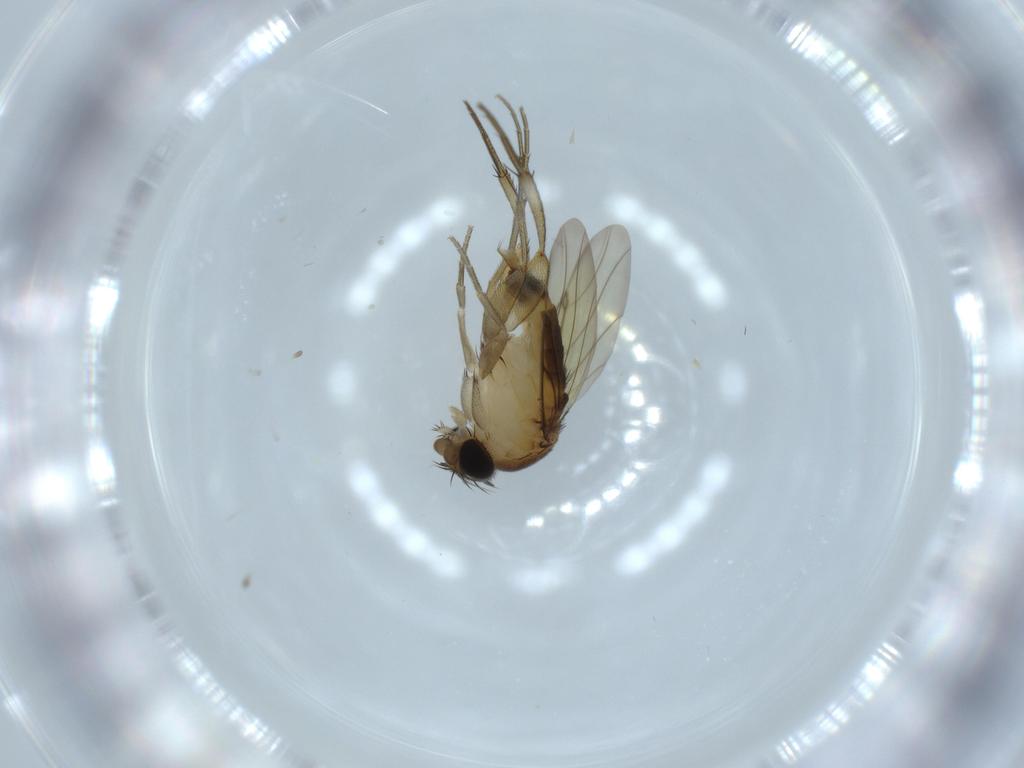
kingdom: Animalia
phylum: Arthropoda
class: Insecta
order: Diptera
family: Phoridae
